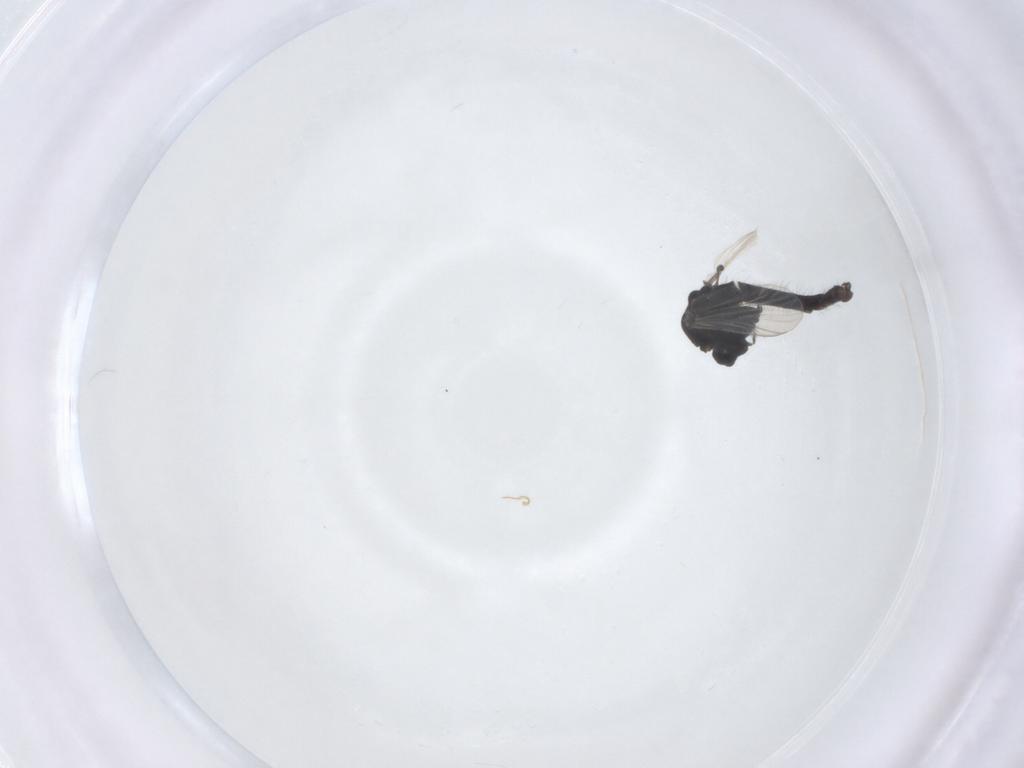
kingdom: Animalia
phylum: Arthropoda
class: Insecta
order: Diptera
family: Chironomidae
